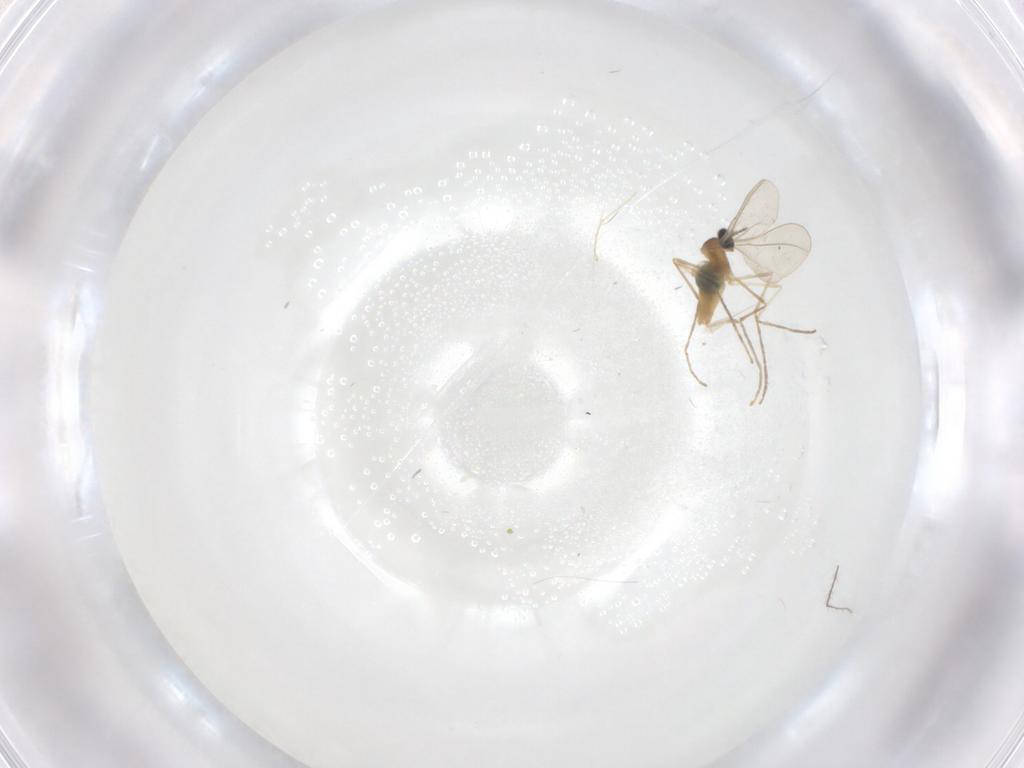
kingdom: Animalia
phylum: Arthropoda
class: Insecta
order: Diptera
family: Cecidomyiidae
